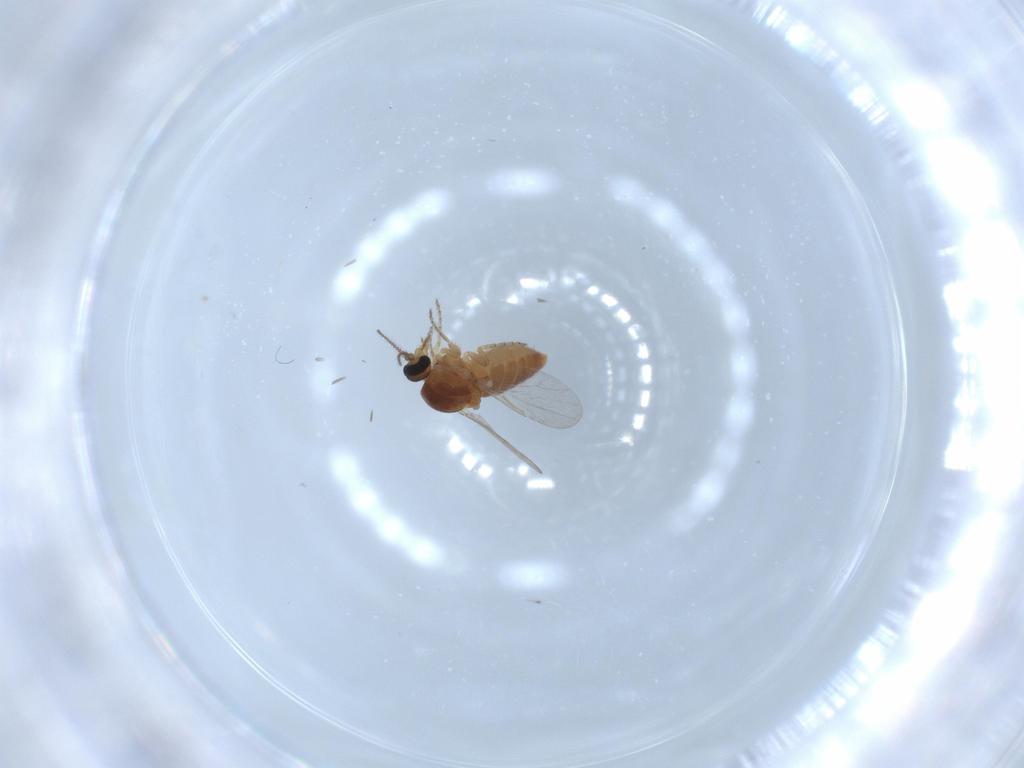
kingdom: Animalia
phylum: Arthropoda
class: Insecta
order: Diptera
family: Ceratopogonidae
